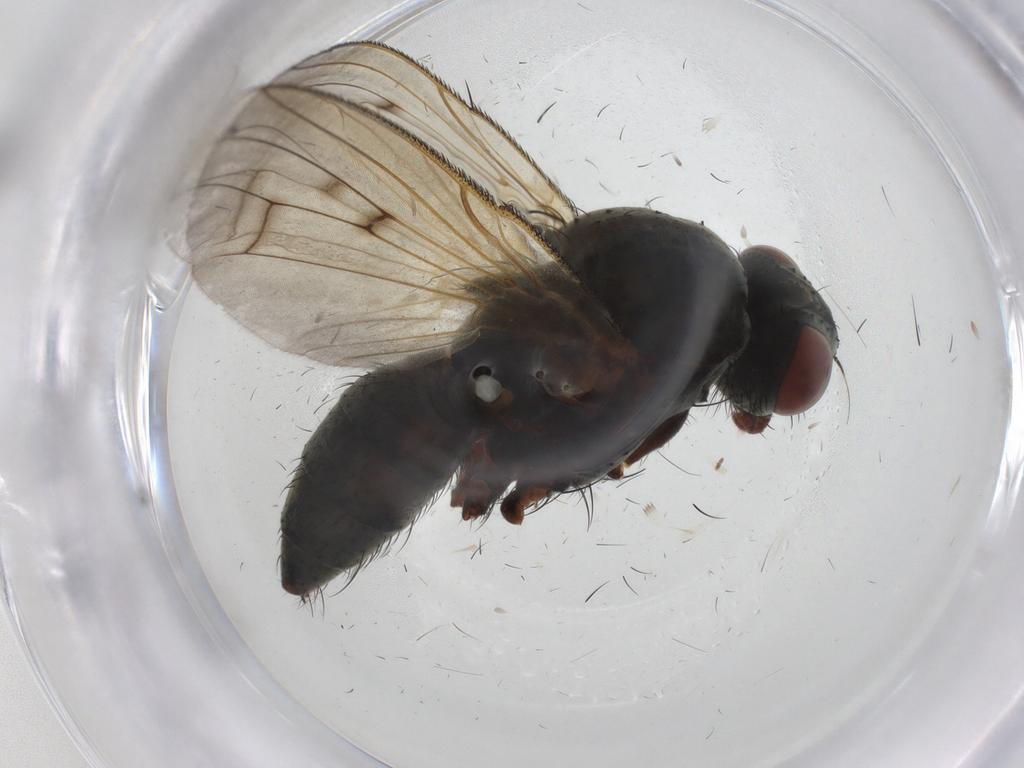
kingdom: Animalia
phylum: Arthropoda
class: Insecta
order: Diptera
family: Anthomyiidae
